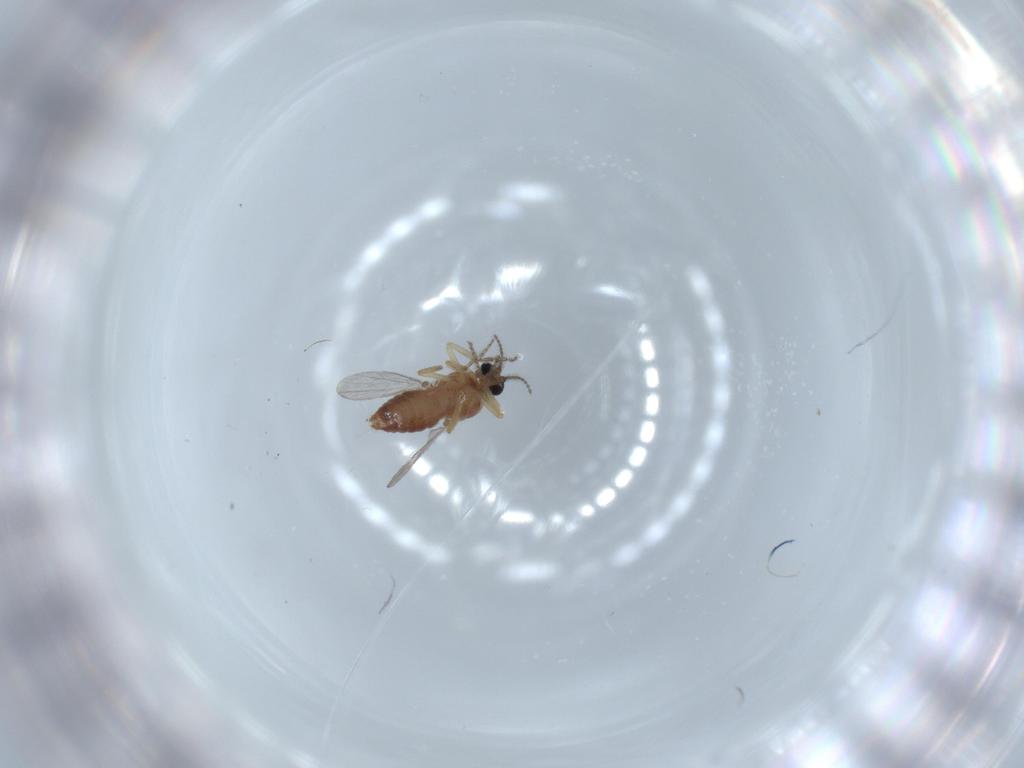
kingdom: Animalia
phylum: Arthropoda
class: Insecta
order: Diptera
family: Ceratopogonidae
